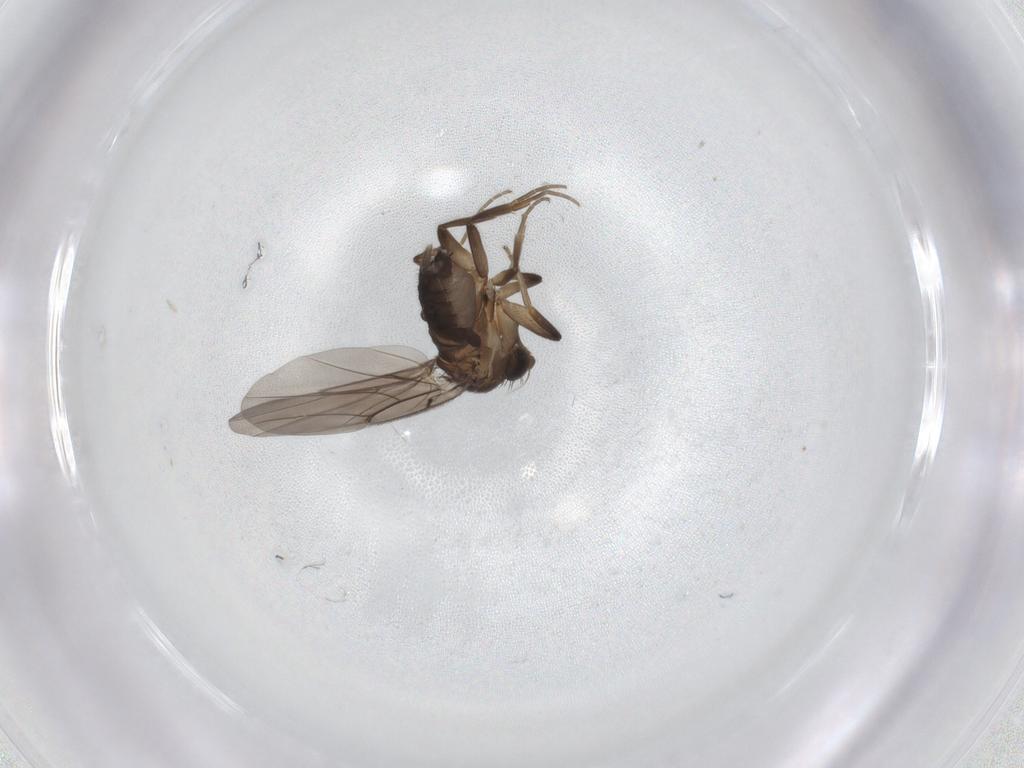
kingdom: Animalia
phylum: Arthropoda
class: Insecta
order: Diptera
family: Phoridae
